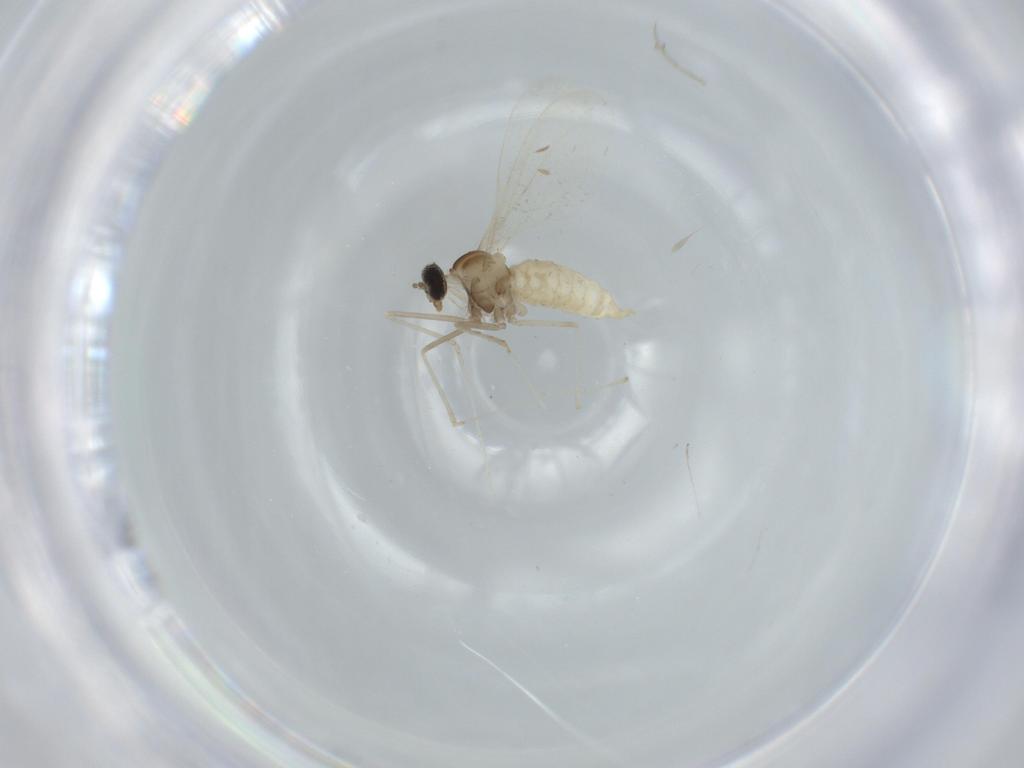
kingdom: Animalia
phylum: Arthropoda
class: Insecta
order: Diptera
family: Cecidomyiidae
